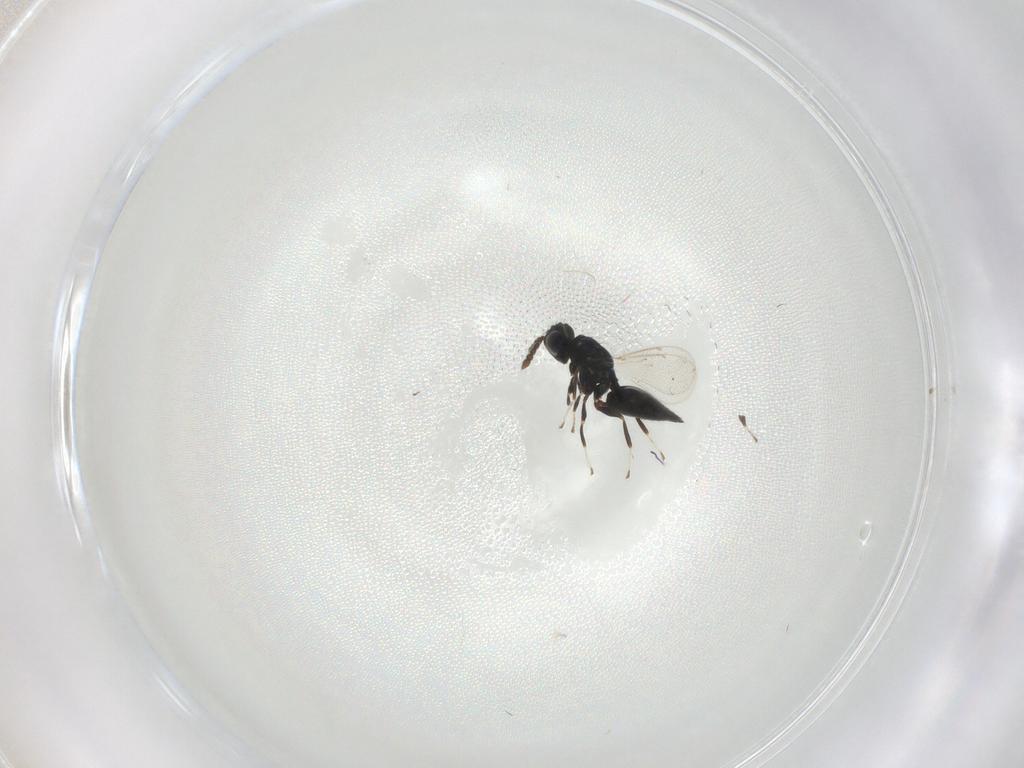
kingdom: Animalia
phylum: Arthropoda
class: Insecta
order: Hymenoptera
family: Eulophidae
